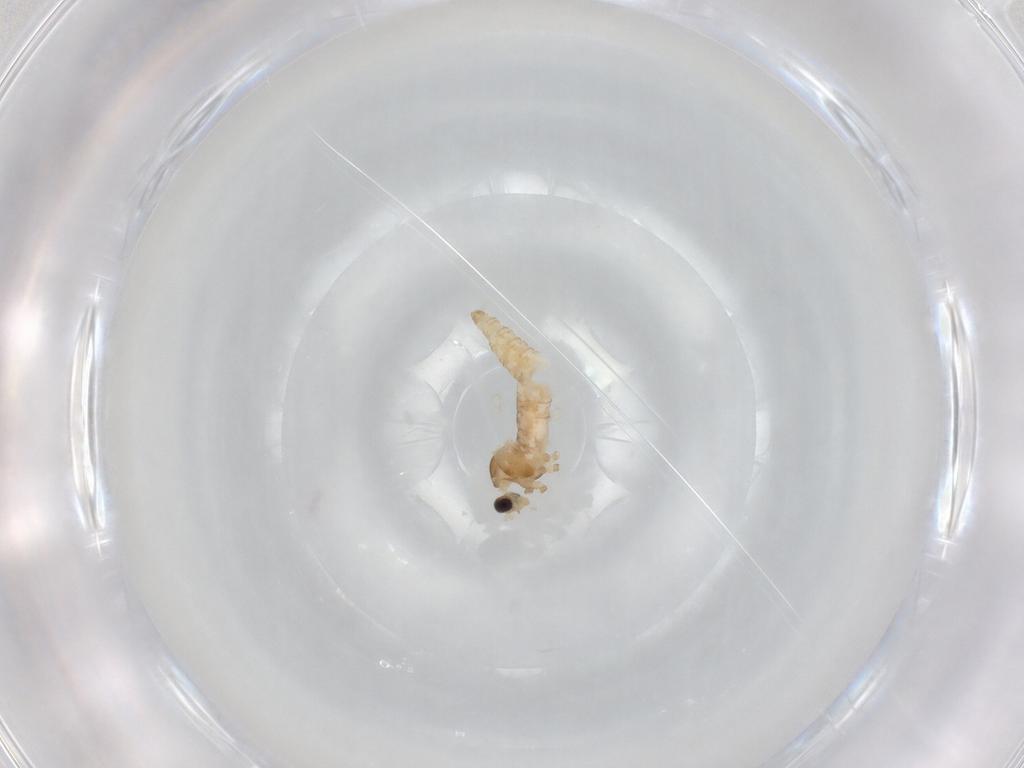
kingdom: Animalia
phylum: Arthropoda
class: Insecta
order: Diptera
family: Cecidomyiidae
